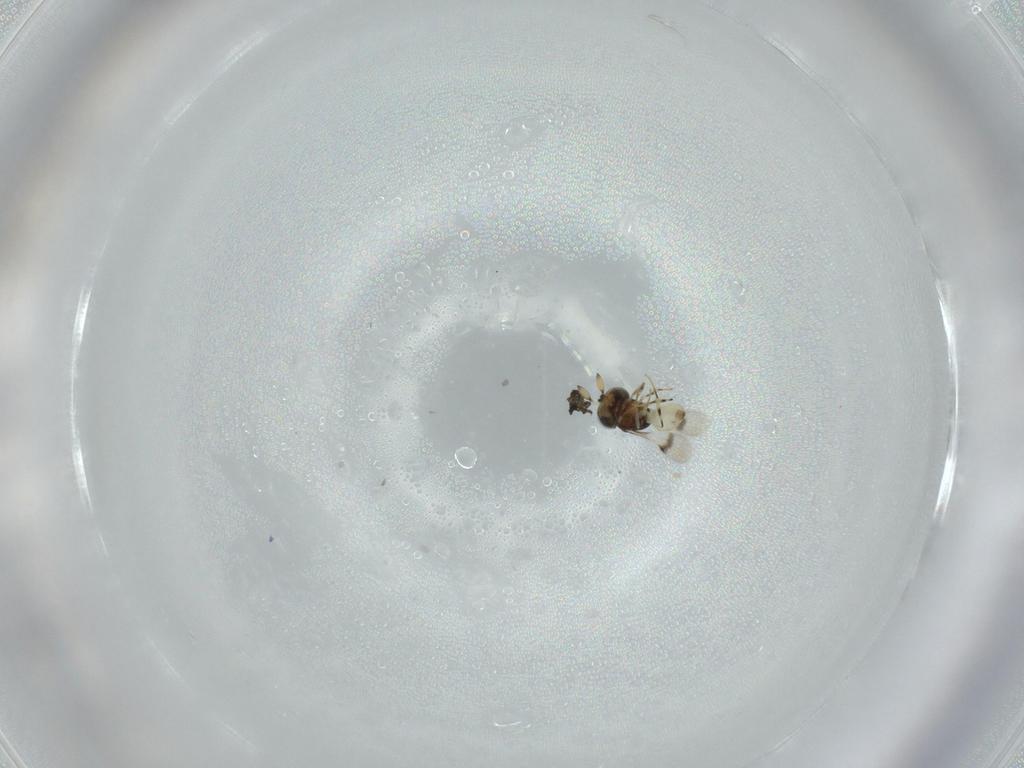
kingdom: Animalia
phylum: Arthropoda
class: Insecta
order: Hymenoptera
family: Scelionidae
